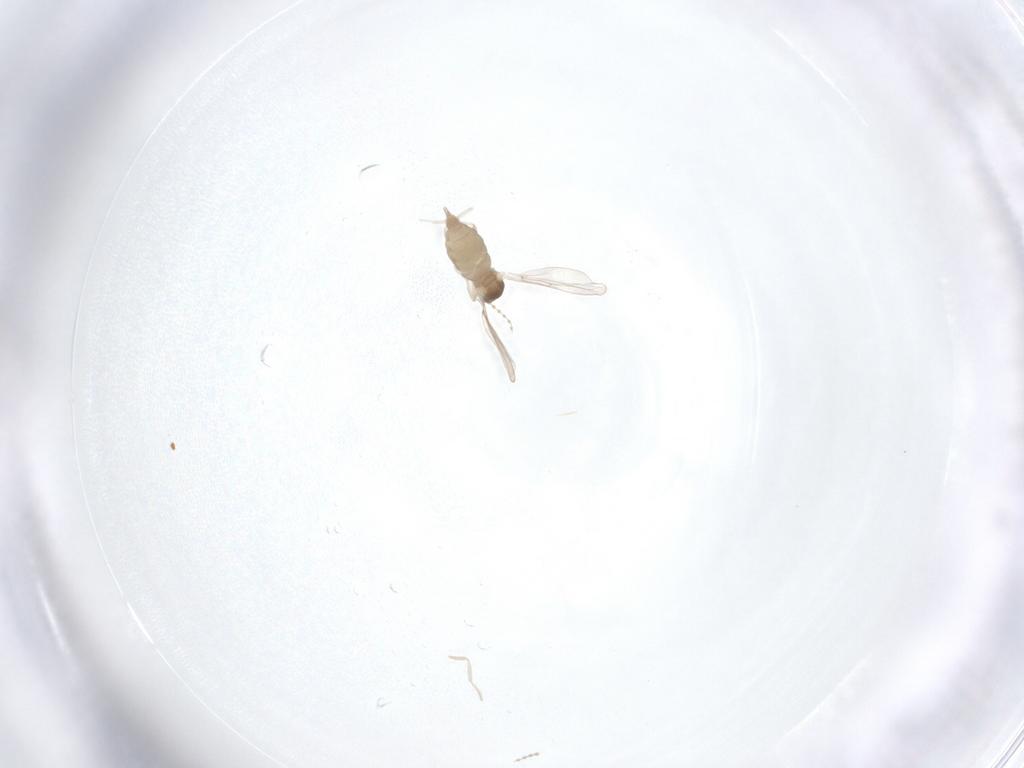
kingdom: Animalia
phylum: Arthropoda
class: Insecta
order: Diptera
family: Cecidomyiidae
